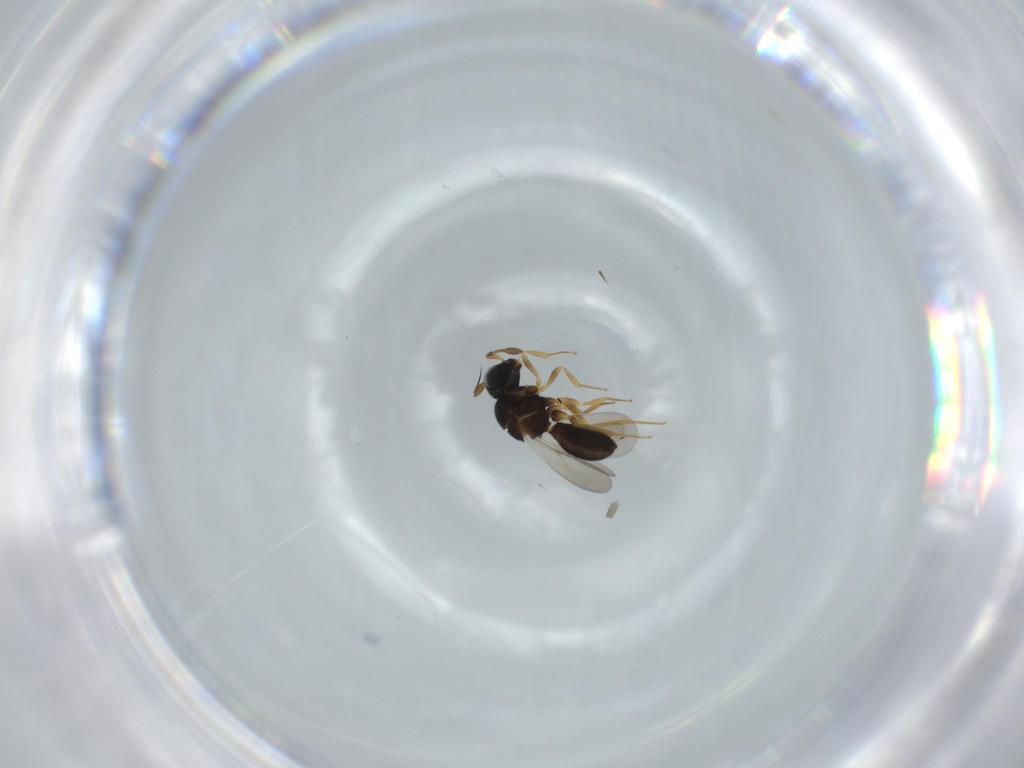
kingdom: Animalia
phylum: Arthropoda
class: Insecta
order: Hymenoptera
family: Scelionidae
